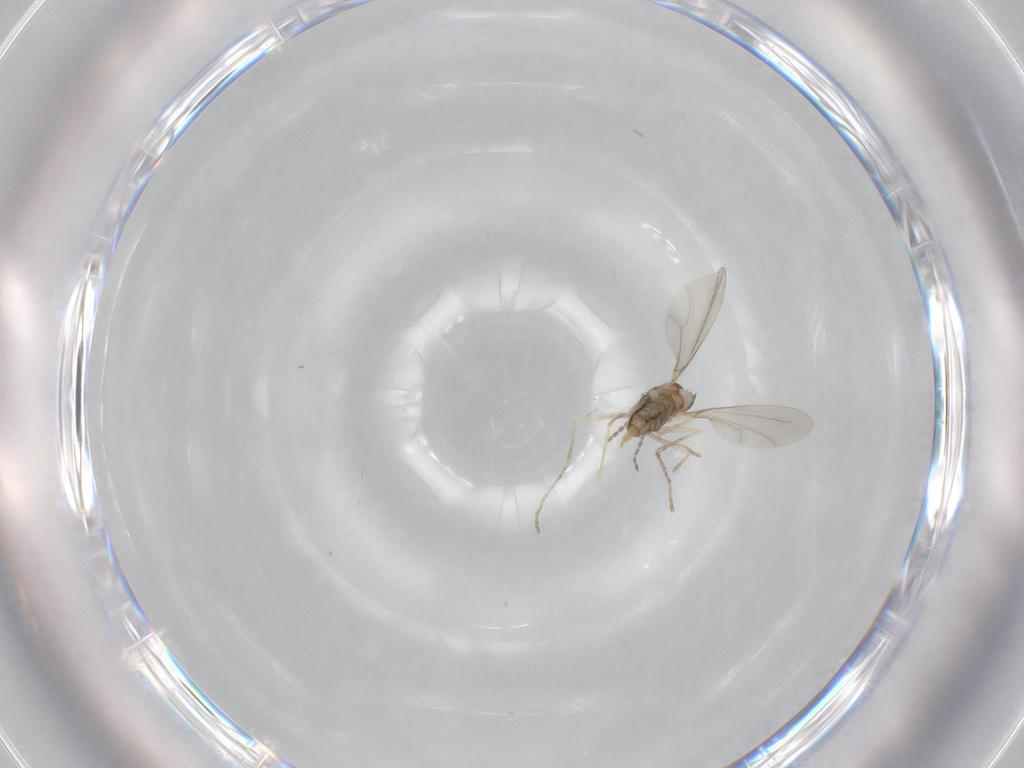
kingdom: Animalia
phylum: Arthropoda
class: Insecta
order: Diptera
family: Cecidomyiidae
